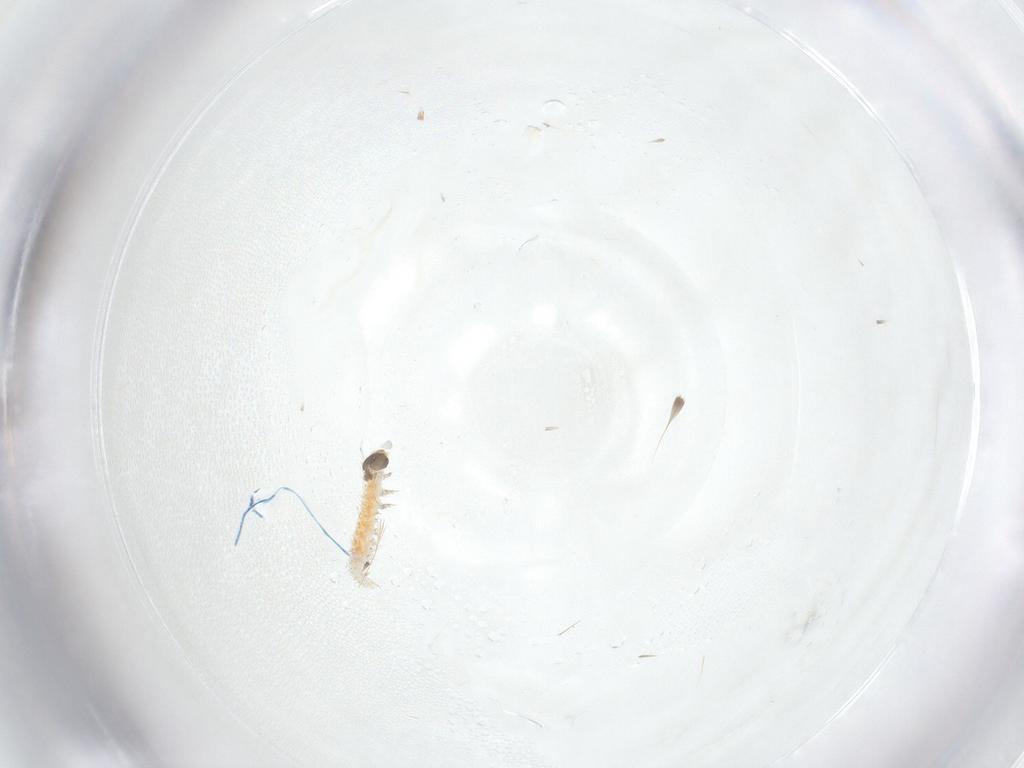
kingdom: Animalia
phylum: Arthropoda
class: Insecta
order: Lepidoptera
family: Crambidae
